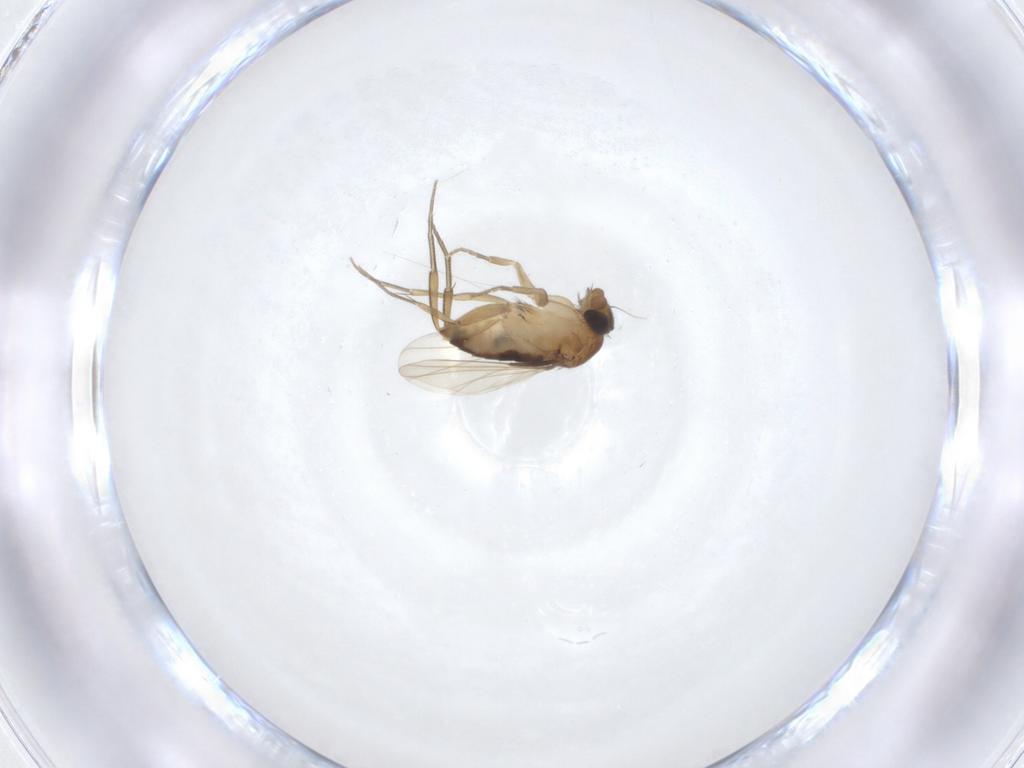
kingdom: Animalia
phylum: Arthropoda
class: Insecta
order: Diptera
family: Phoridae
